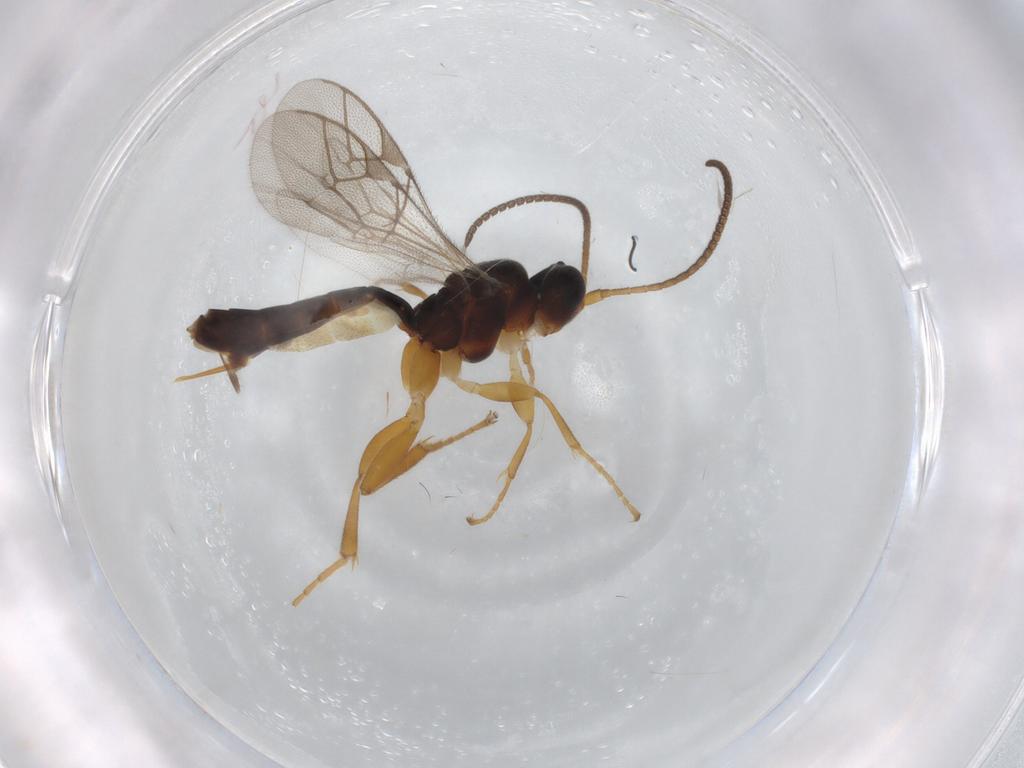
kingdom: Animalia
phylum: Arthropoda
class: Insecta
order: Hymenoptera
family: Ichneumonidae
